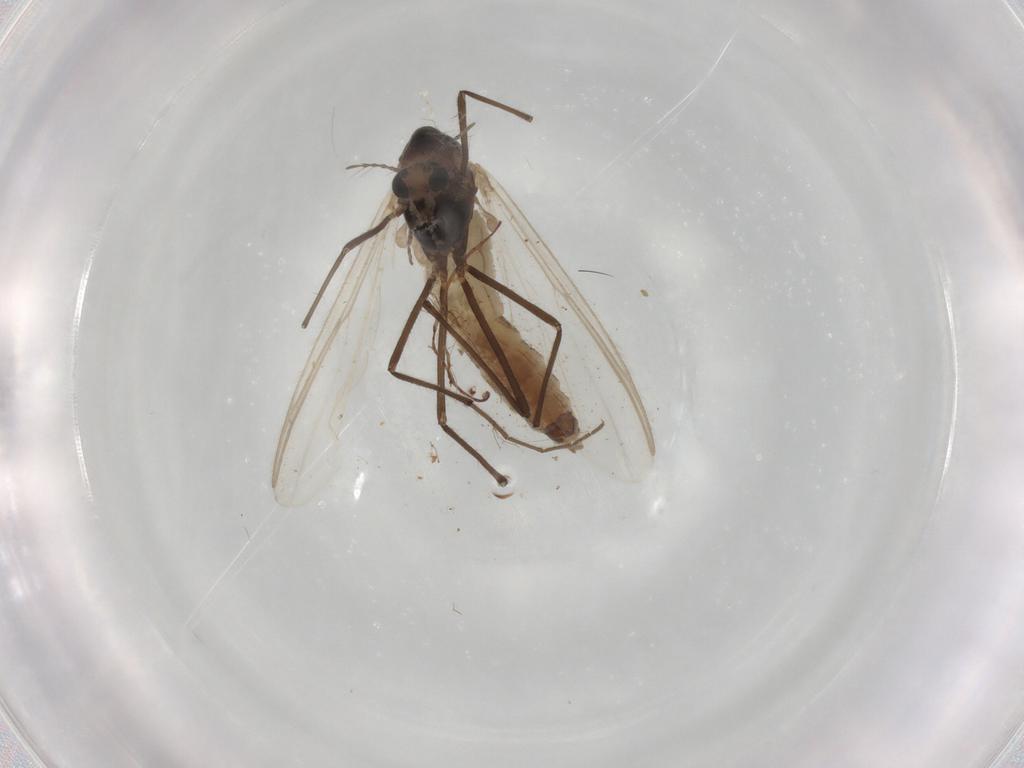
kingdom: Animalia
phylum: Arthropoda
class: Insecta
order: Diptera
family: Chironomidae
